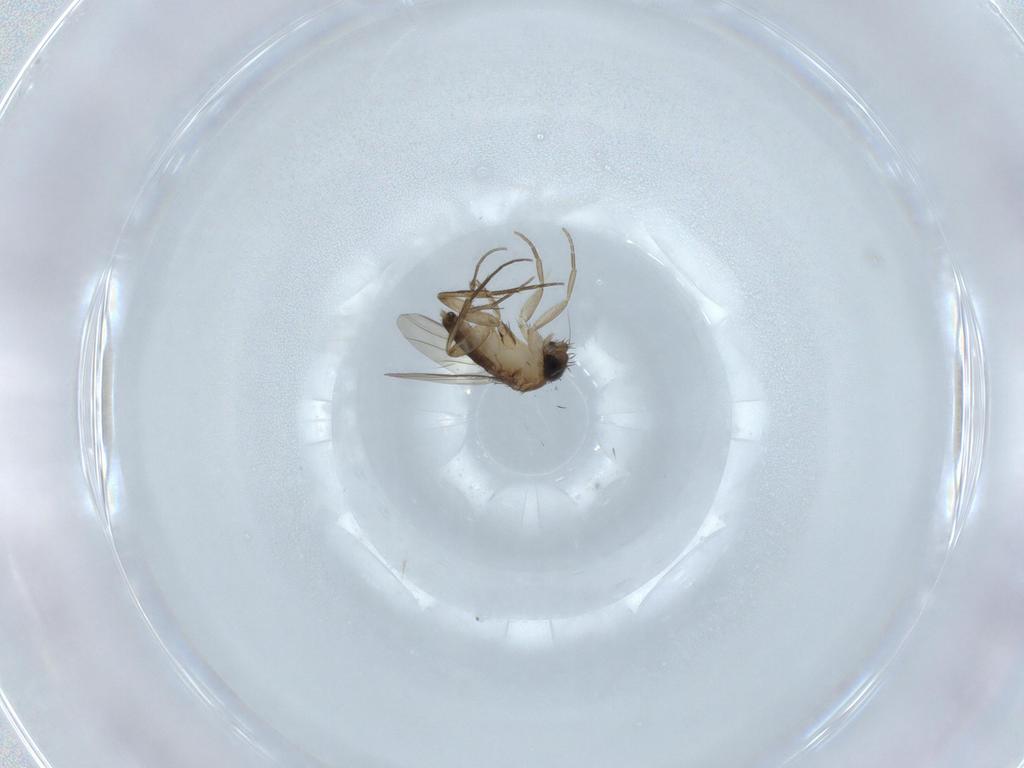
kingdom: Animalia
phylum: Arthropoda
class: Insecta
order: Diptera
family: Phoridae
